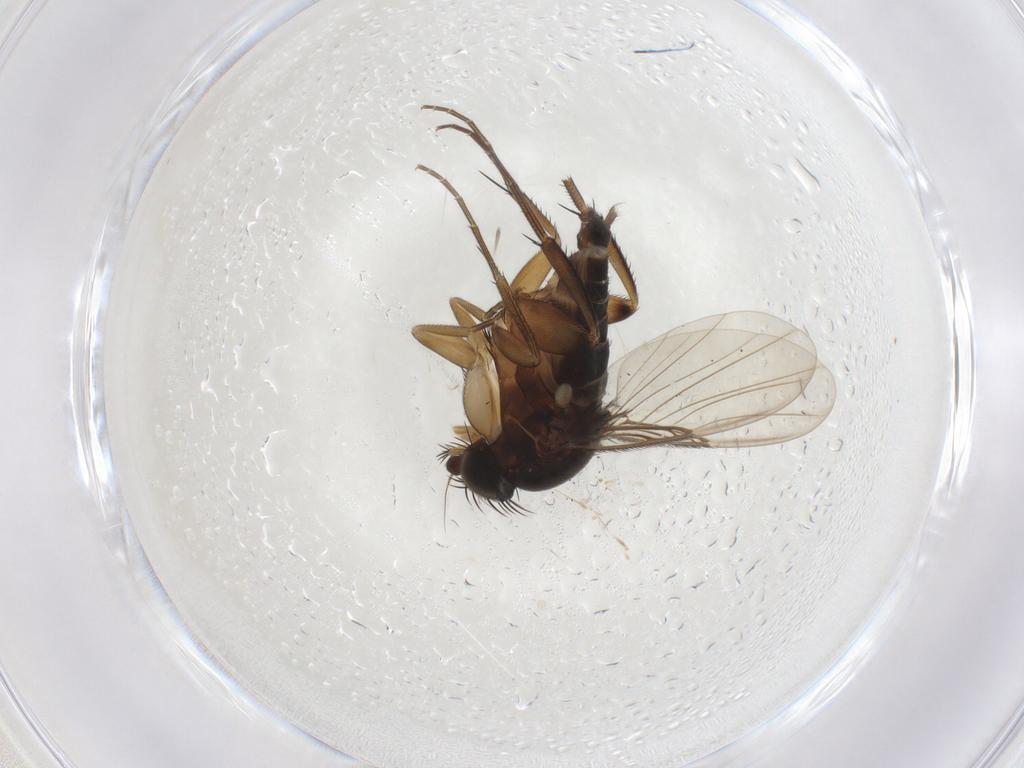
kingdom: Animalia
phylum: Arthropoda
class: Insecta
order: Diptera
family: Phoridae
